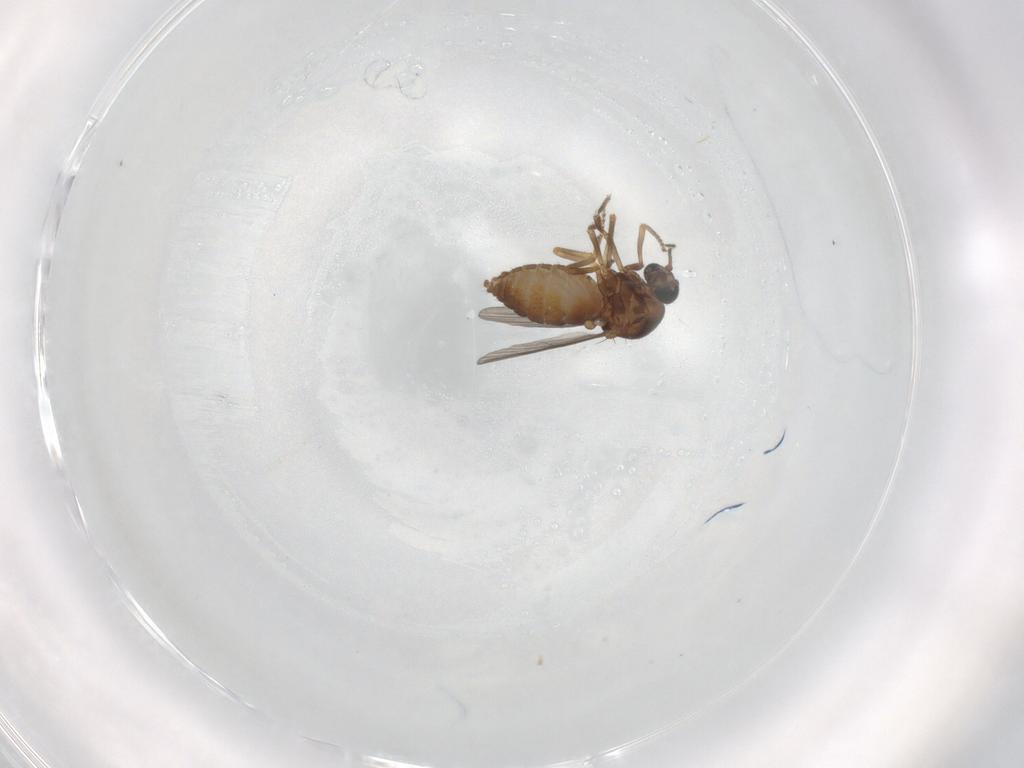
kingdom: Animalia
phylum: Arthropoda
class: Insecta
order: Diptera
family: Ceratopogonidae
